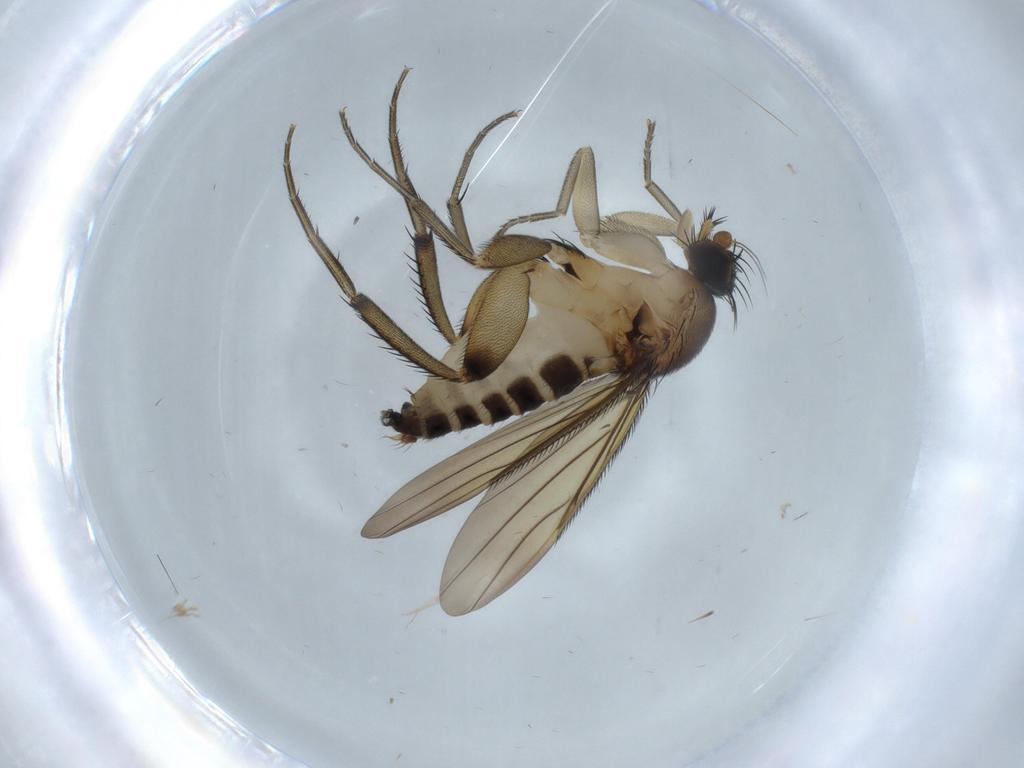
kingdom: Animalia
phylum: Arthropoda
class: Insecta
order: Diptera
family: Phoridae
